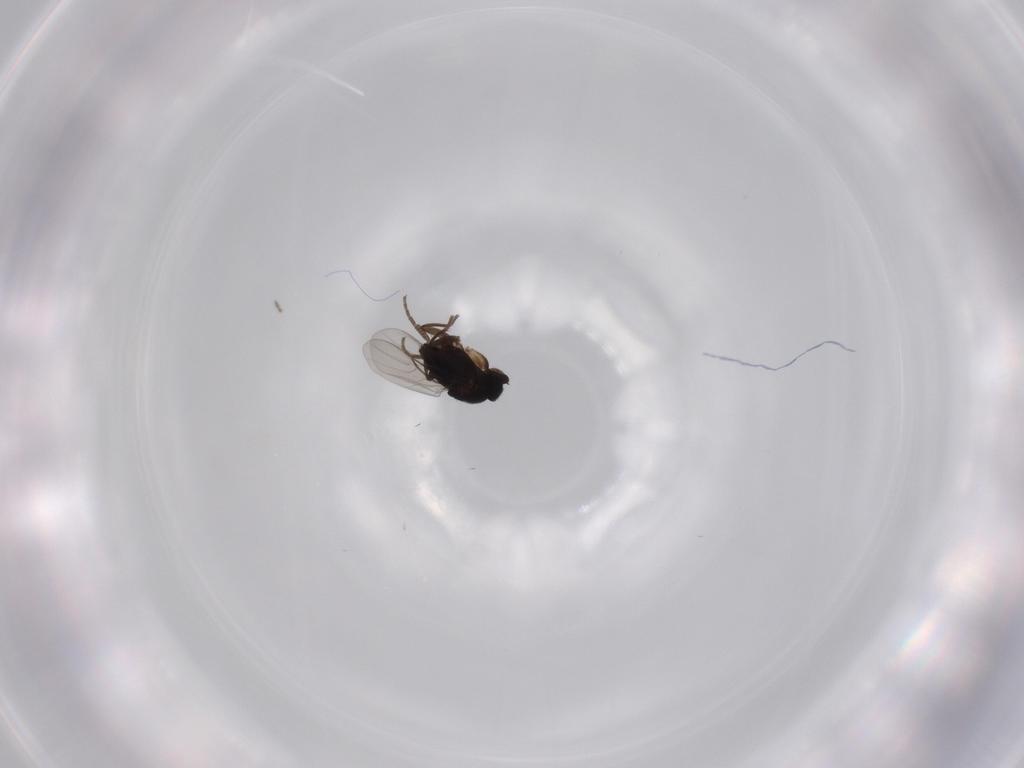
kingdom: Animalia
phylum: Arthropoda
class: Insecta
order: Diptera
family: Phoridae
